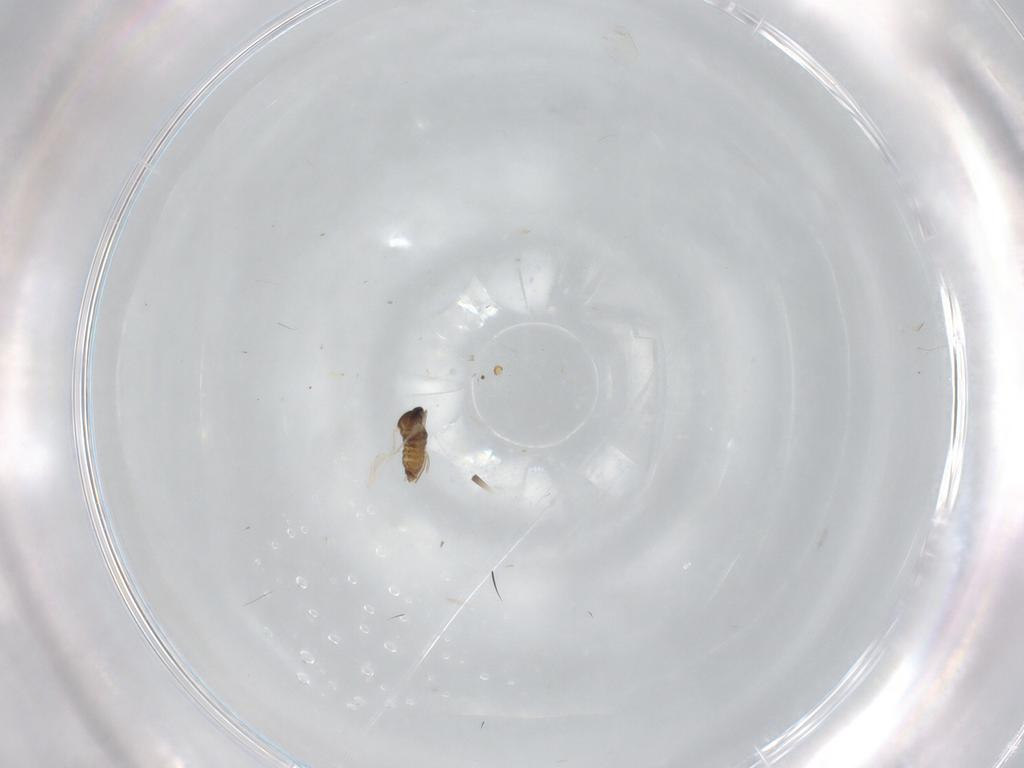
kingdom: Animalia
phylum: Arthropoda
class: Insecta
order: Diptera
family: Cecidomyiidae
